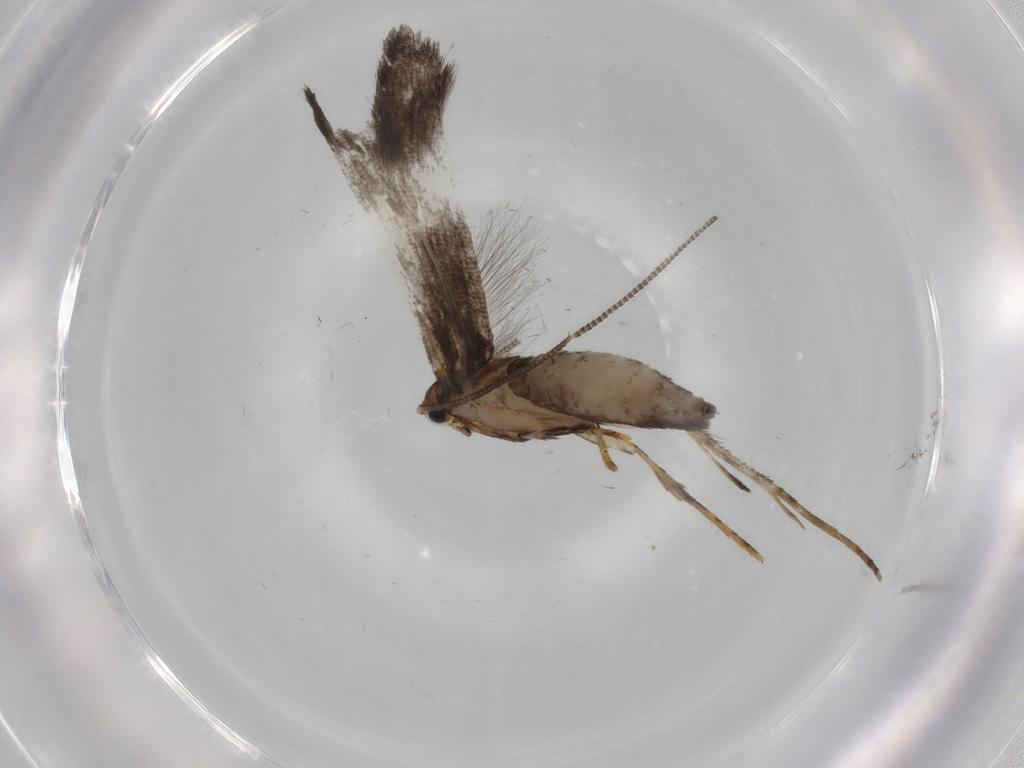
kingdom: Animalia
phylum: Arthropoda
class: Insecta
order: Lepidoptera
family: Tineidae
